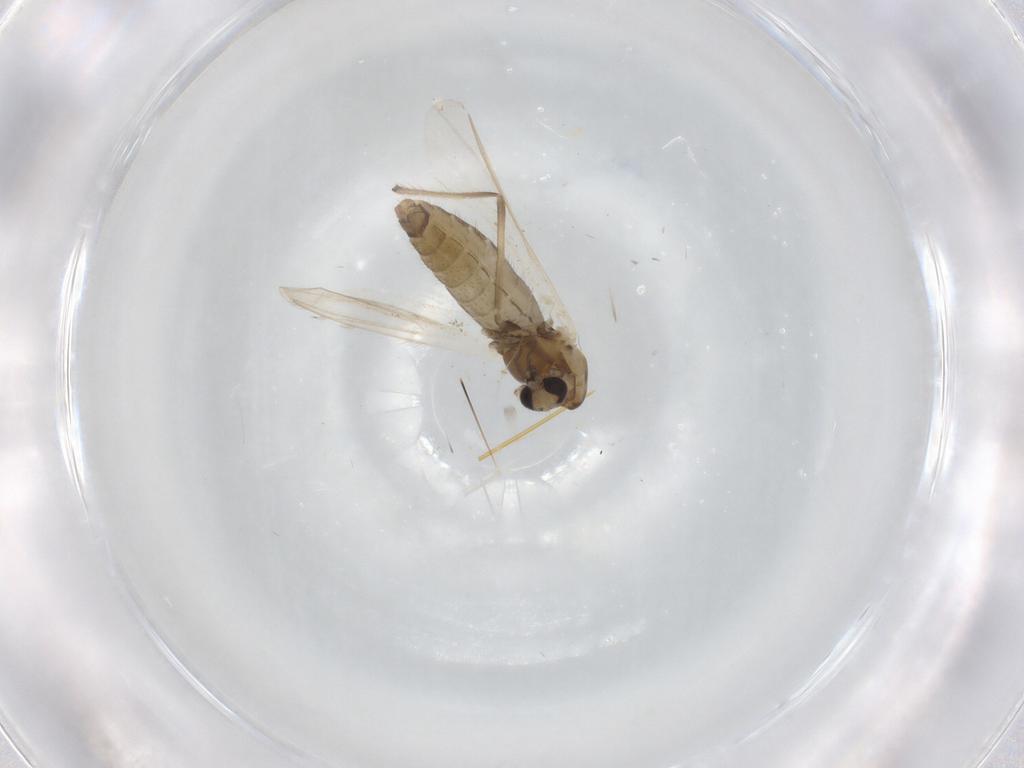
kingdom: Animalia
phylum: Arthropoda
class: Insecta
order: Diptera
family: Chironomidae
